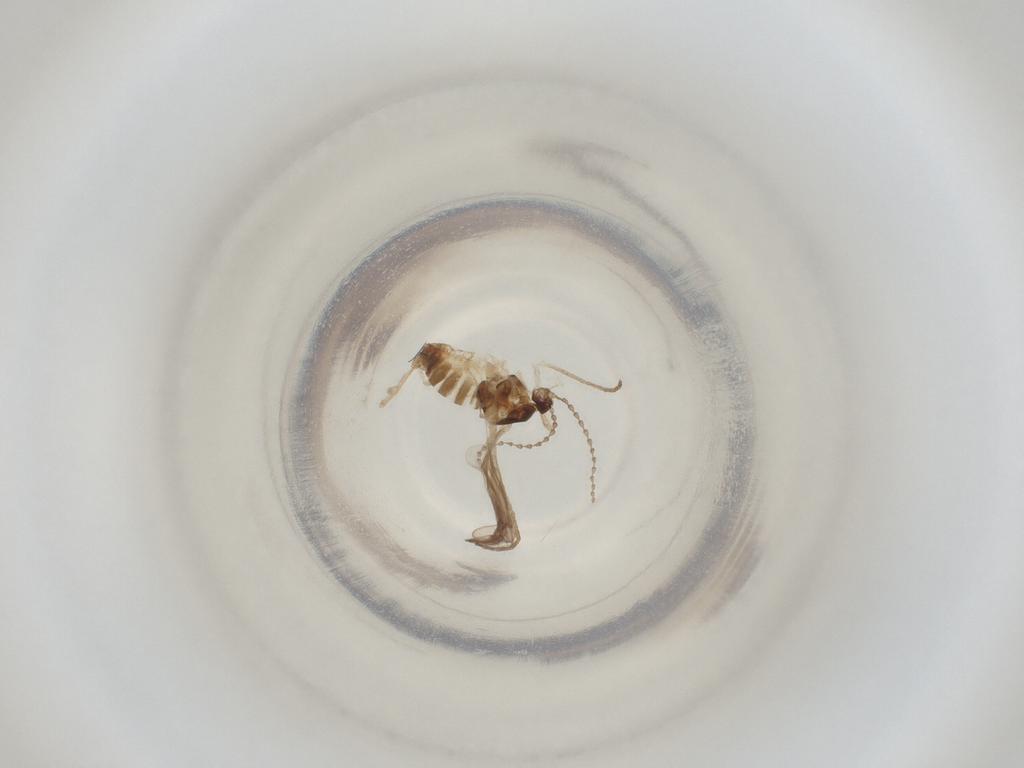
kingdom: Animalia
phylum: Arthropoda
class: Insecta
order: Diptera
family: Cecidomyiidae
